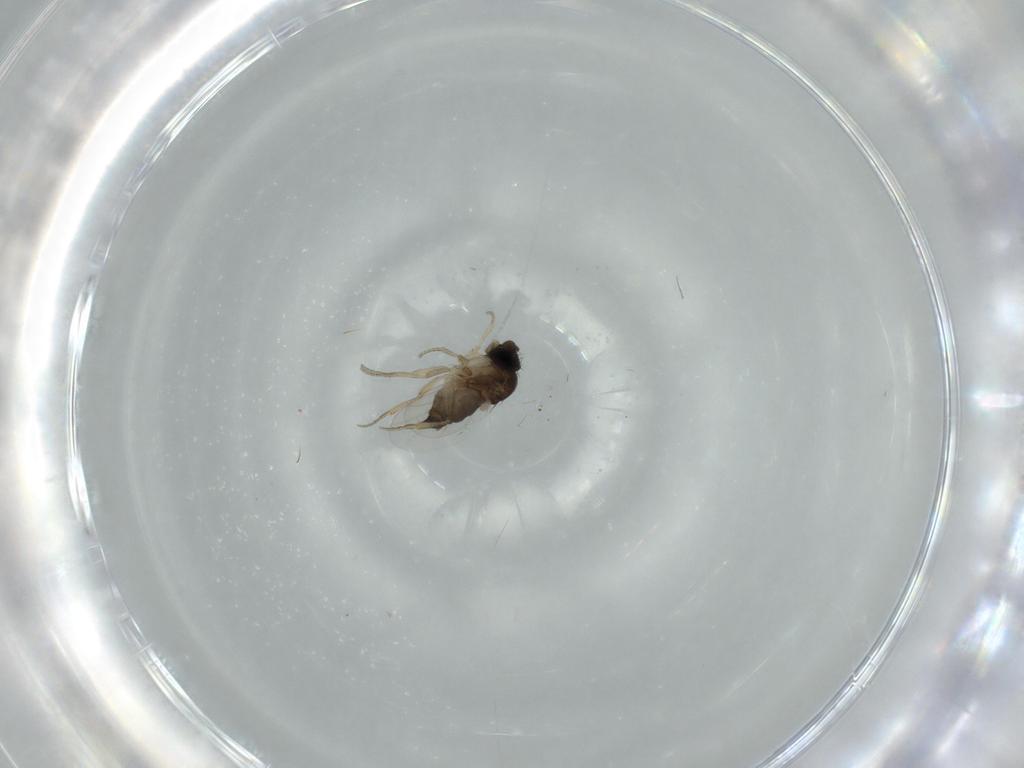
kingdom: Animalia
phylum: Arthropoda
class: Insecta
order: Diptera
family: Phoridae
